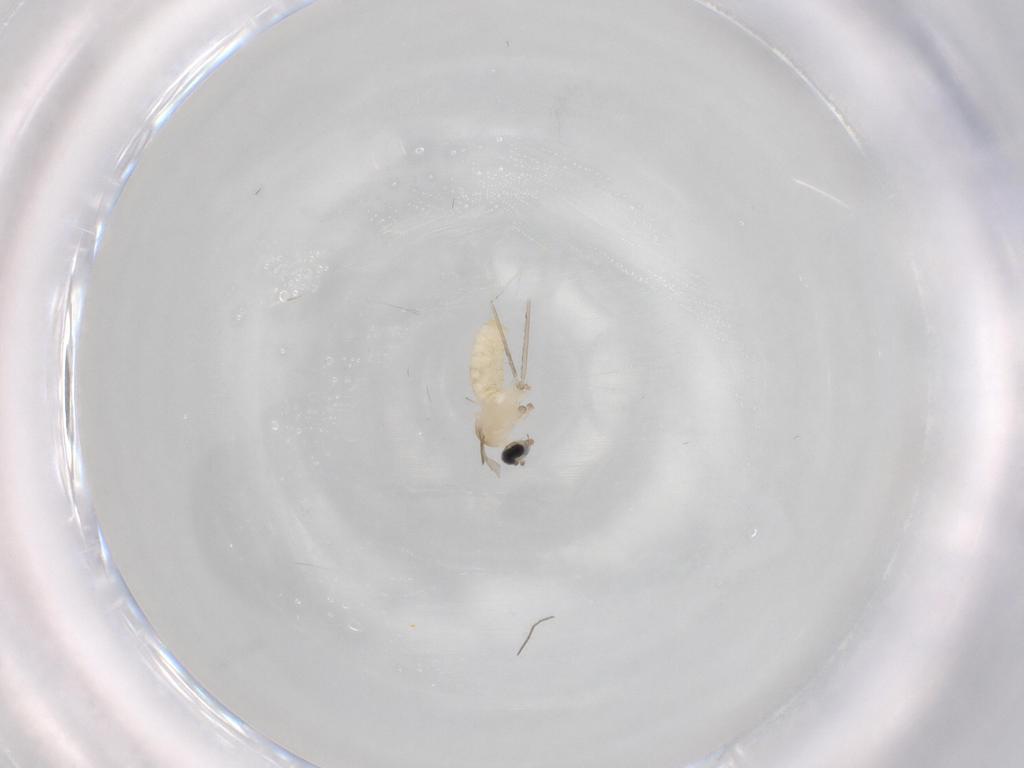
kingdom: Animalia
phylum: Arthropoda
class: Insecta
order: Diptera
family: Cecidomyiidae
